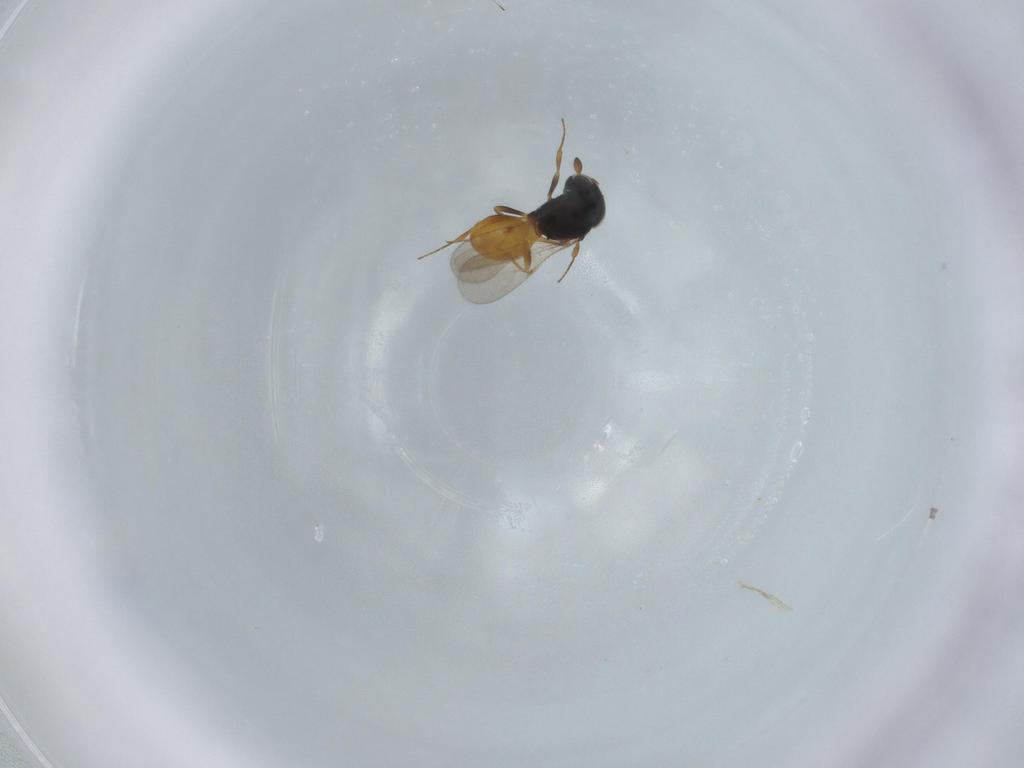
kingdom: Animalia
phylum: Arthropoda
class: Insecta
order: Hymenoptera
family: Scelionidae
